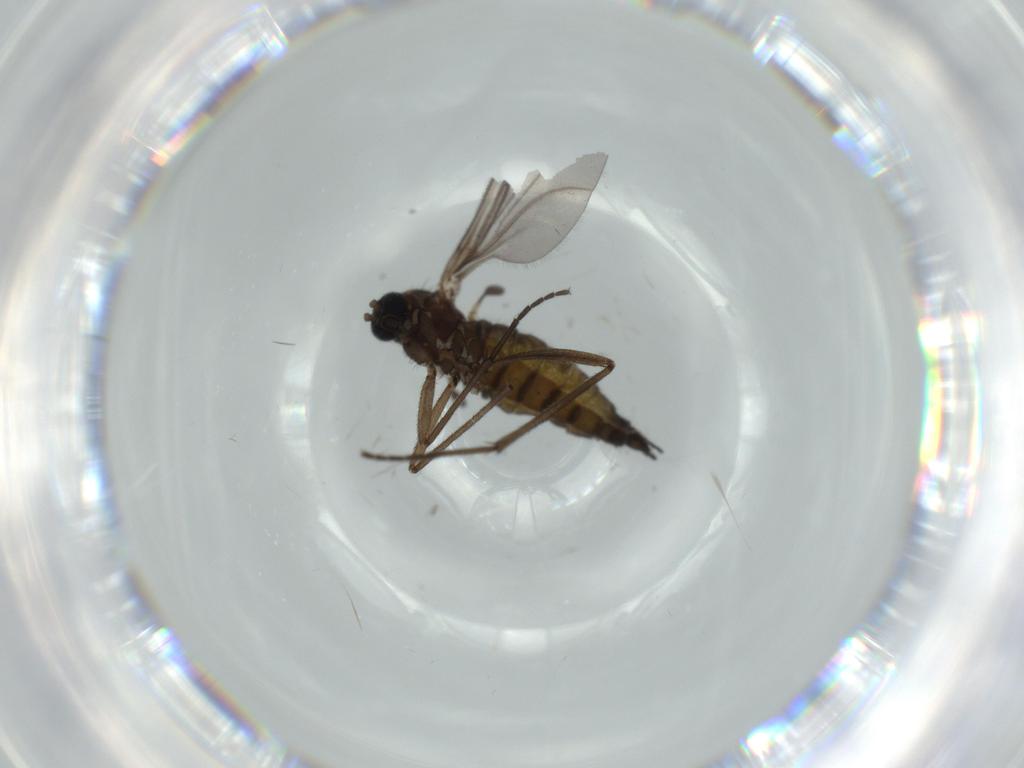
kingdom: Animalia
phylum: Arthropoda
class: Insecta
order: Diptera
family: Sciaridae
